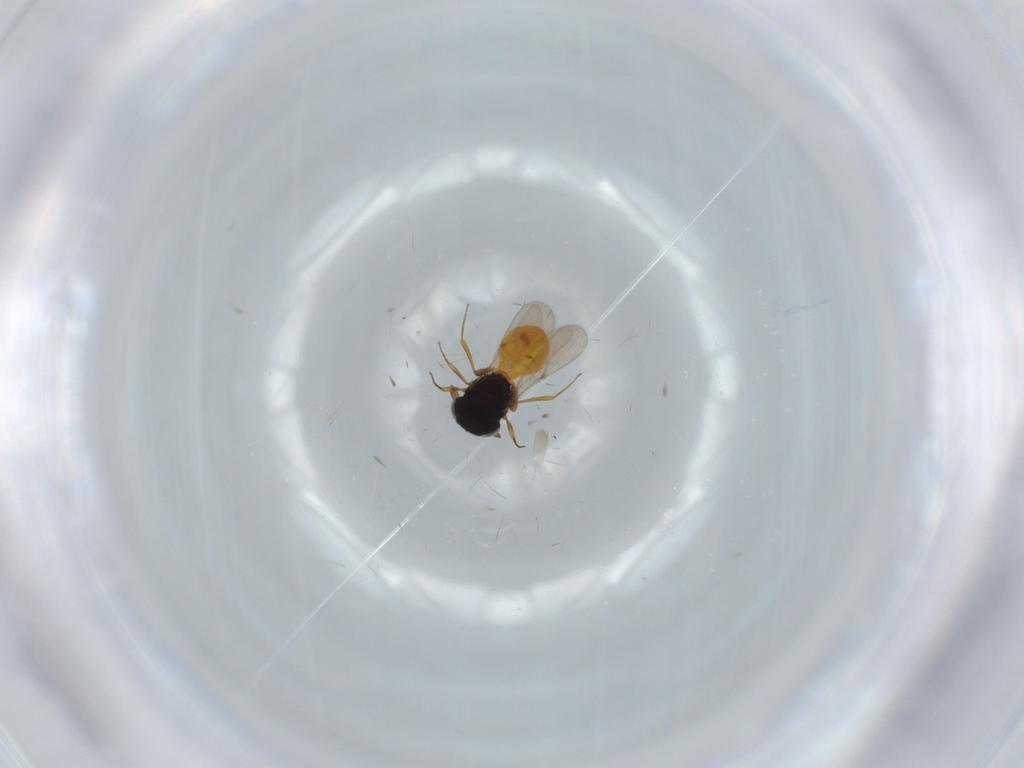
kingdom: Animalia
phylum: Arthropoda
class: Insecta
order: Hymenoptera
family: Scelionidae
